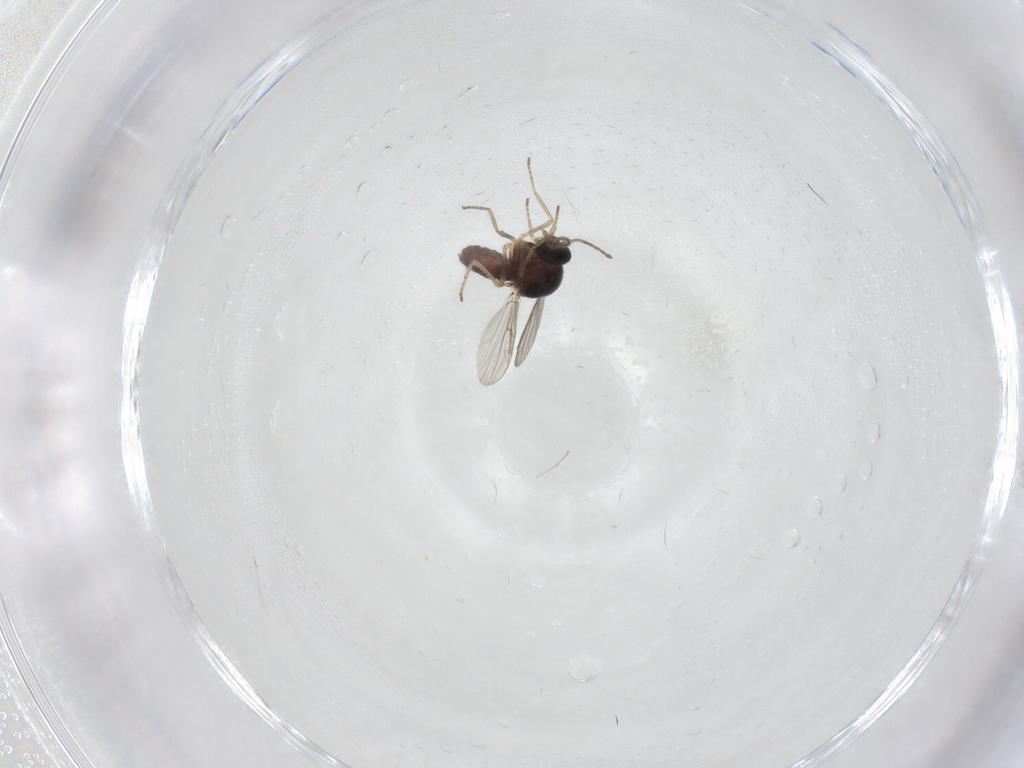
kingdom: Animalia
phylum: Arthropoda
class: Insecta
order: Diptera
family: Ceratopogonidae
